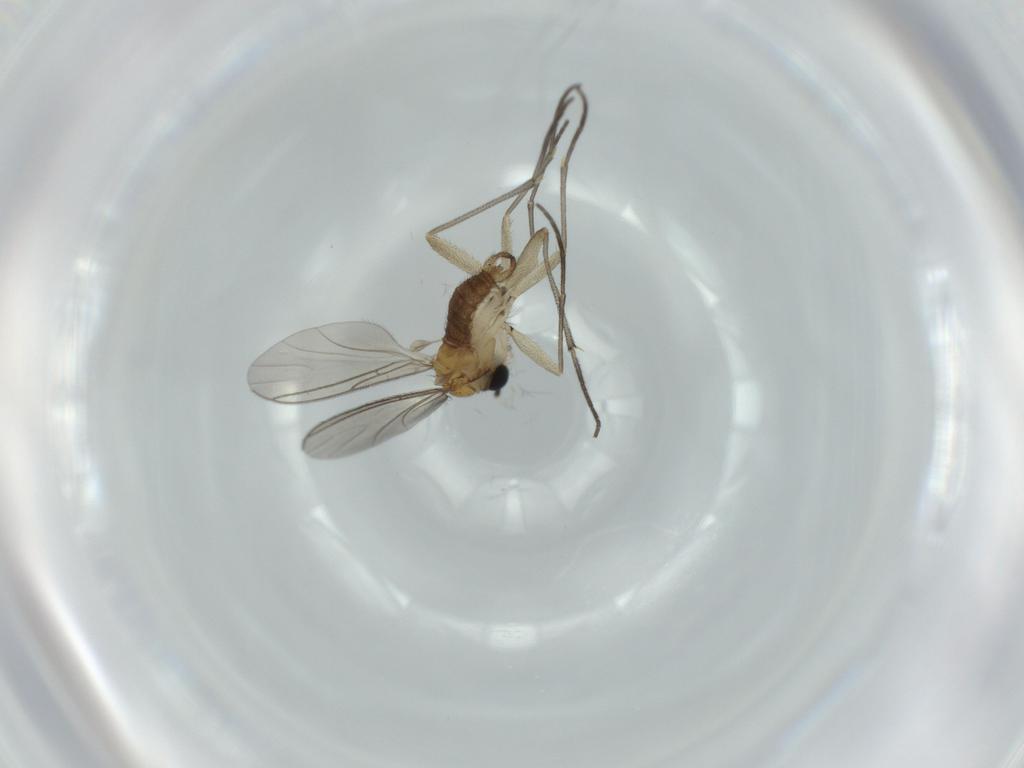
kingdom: Animalia
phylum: Arthropoda
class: Insecta
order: Diptera
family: Sciaridae
